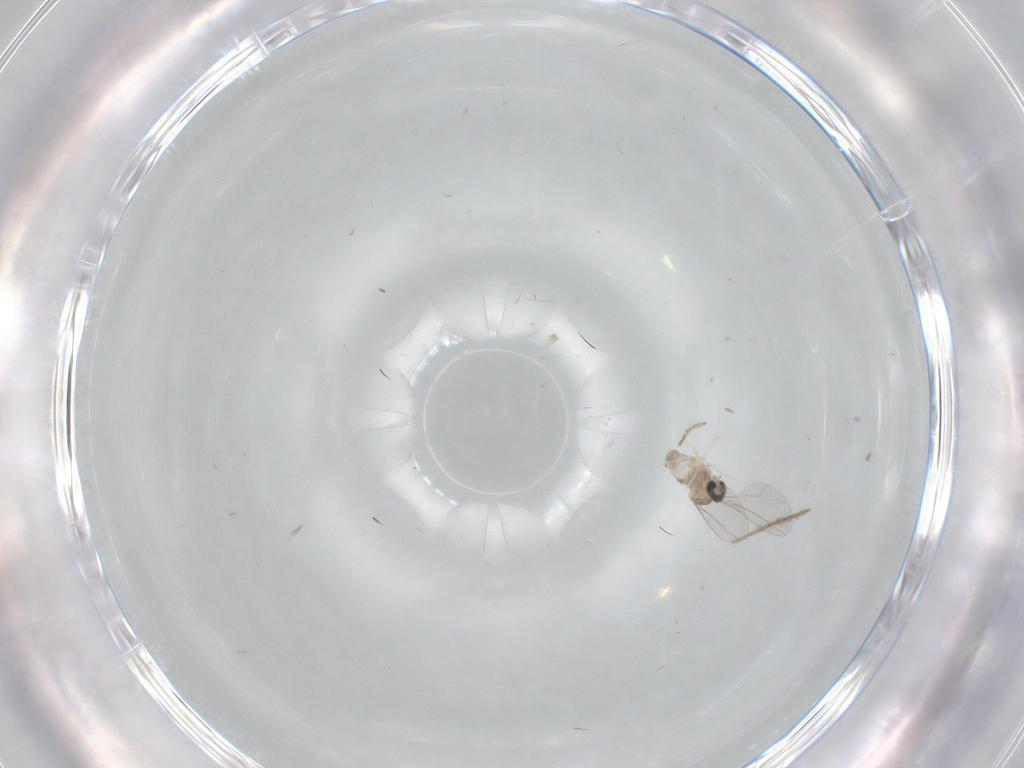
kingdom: Animalia
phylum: Arthropoda
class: Insecta
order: Diptera
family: Cecidomyiidae
